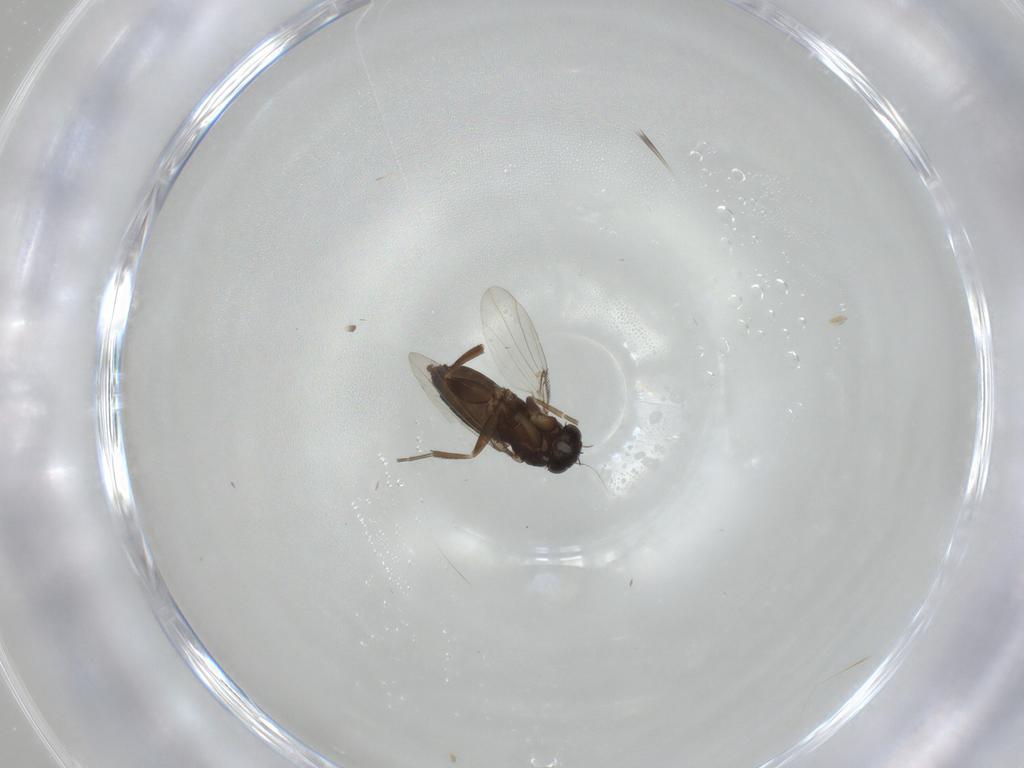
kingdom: Animalia
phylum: Arthropoda
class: Insecta
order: Diptera
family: Phoridae
